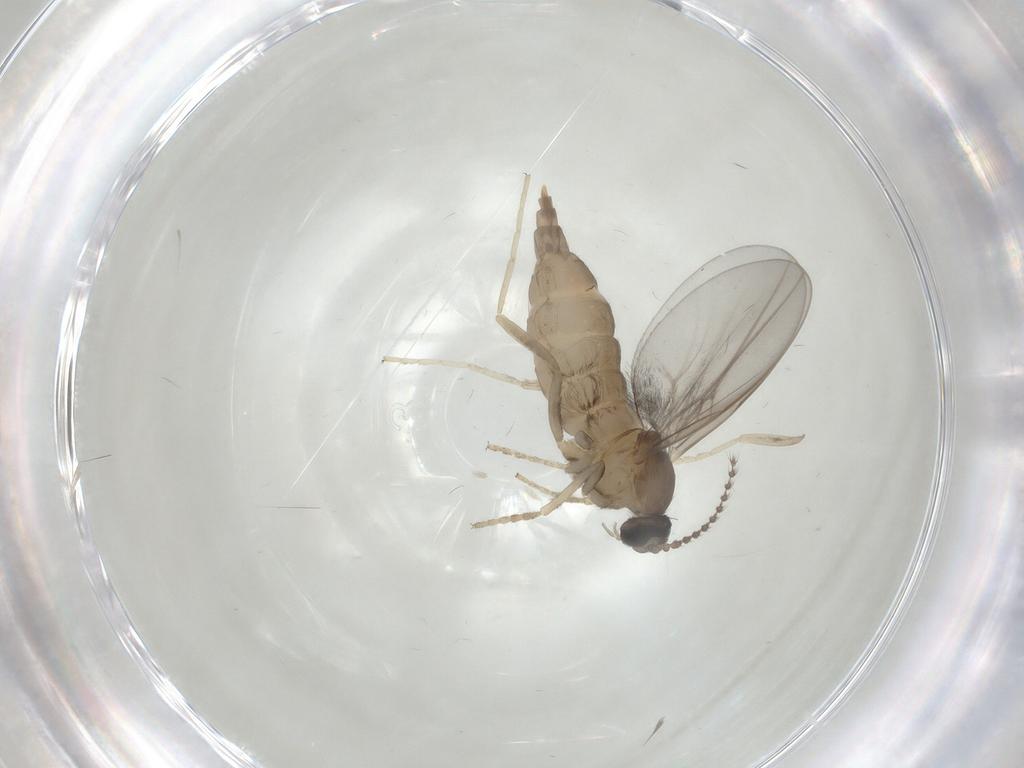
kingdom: Animalia
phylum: Arthropoda
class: Insecta
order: Diptera
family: Cecidomyiidae
